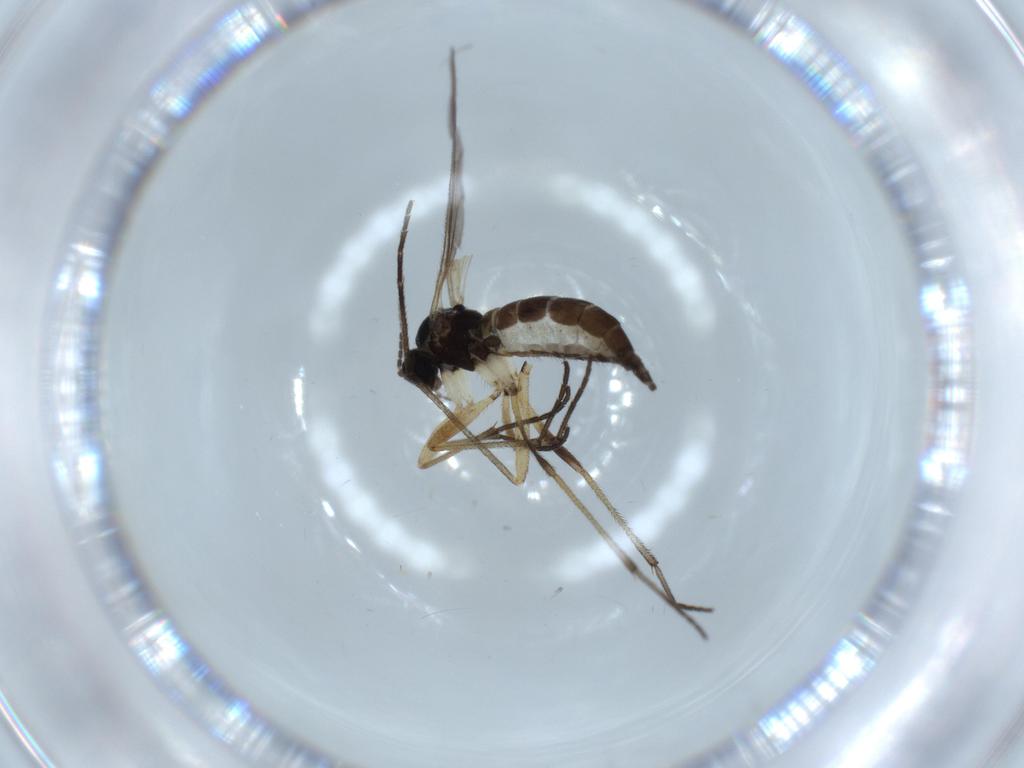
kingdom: Animalia
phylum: Arthropoda
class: Insecta
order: Diptera
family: Sciaridae
